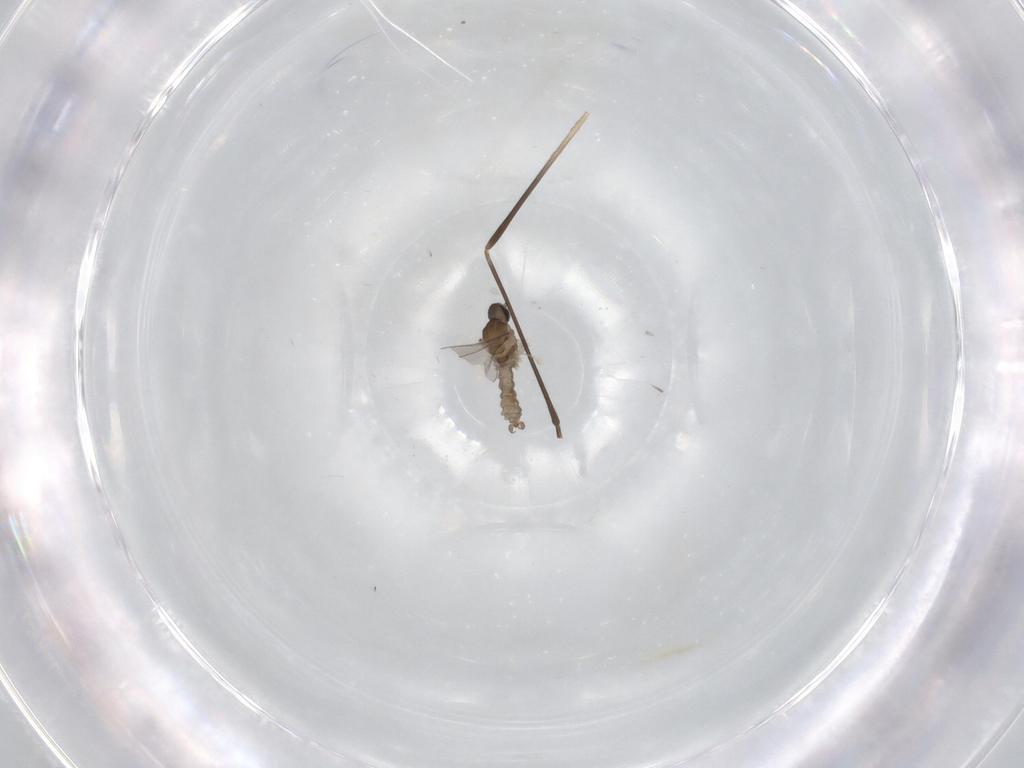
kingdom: Animalia
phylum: Arthropoda
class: Insecta
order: Diptera
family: Cecidomyiidae
